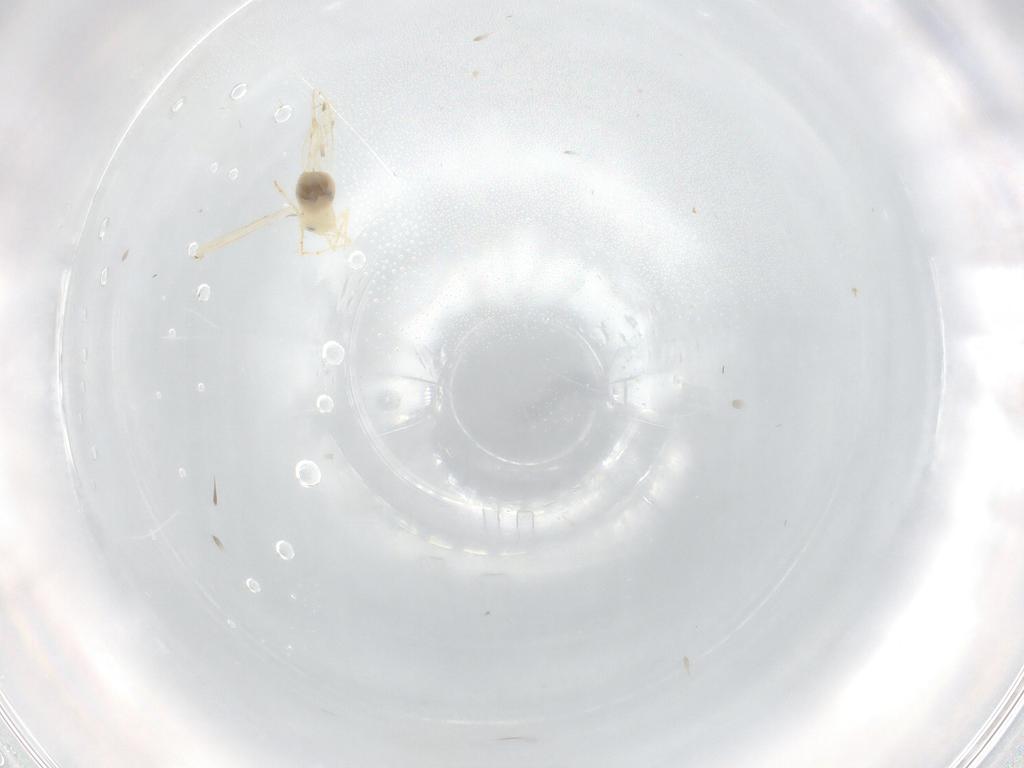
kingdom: Animalia
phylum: Arthropoda
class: Insecta
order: Hemiptera
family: Aleyrodidae
